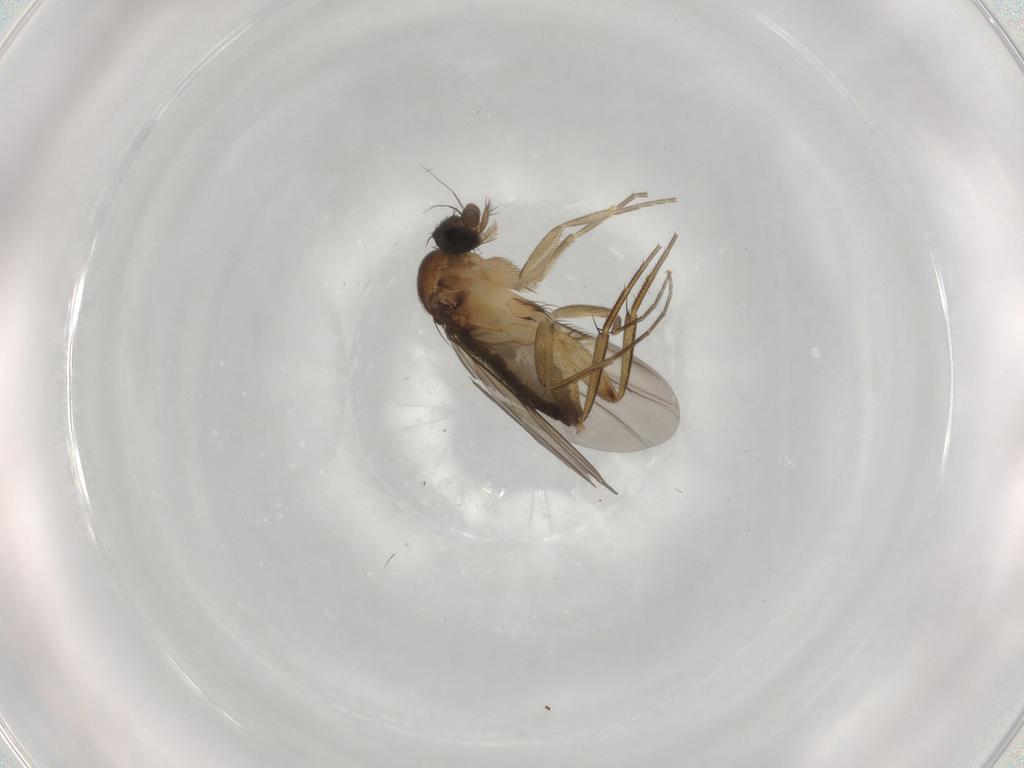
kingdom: Animalia
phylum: Arthropoda
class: Insecta
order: Diptera
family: Phoridae
